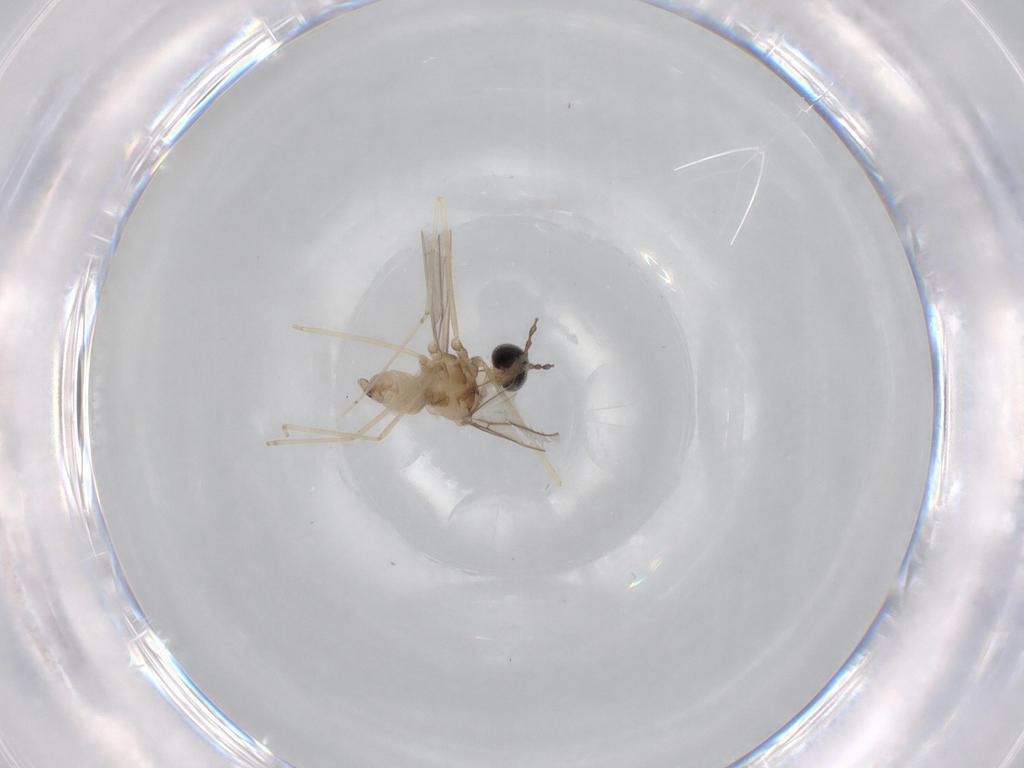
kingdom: Animalia
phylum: Arthropoda
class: Insecta
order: Diptera
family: Cecidomyiidae
